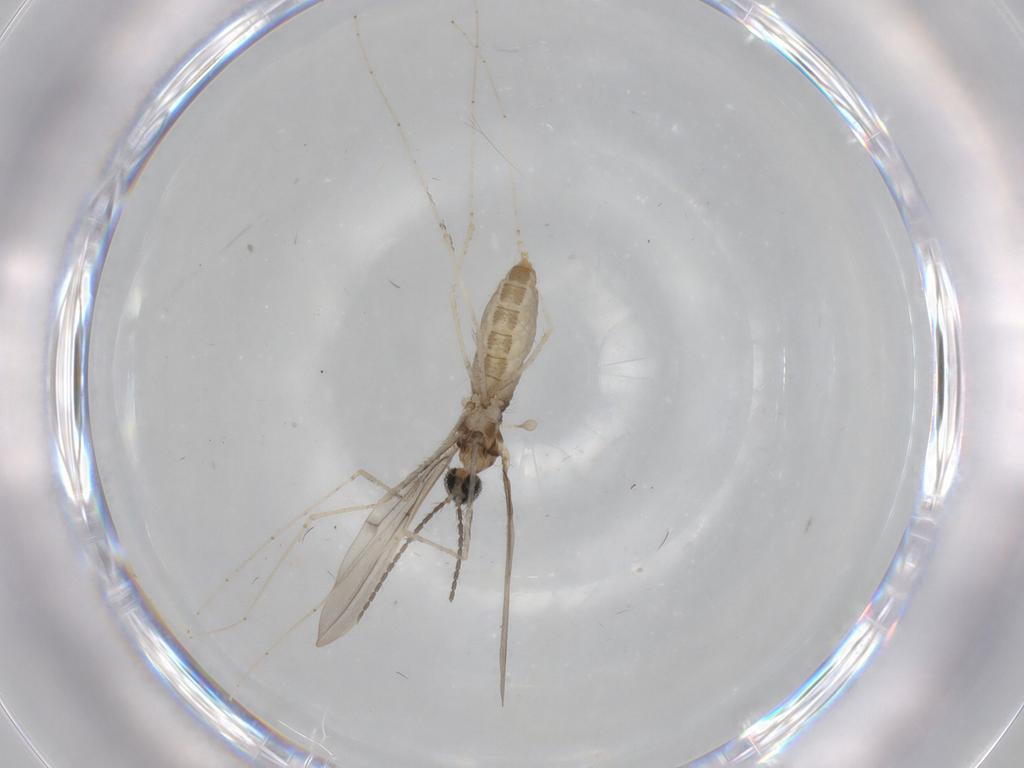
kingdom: Animalia
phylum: Arthropoda
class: Insecta
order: Diptera
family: Cecidomyiidae
